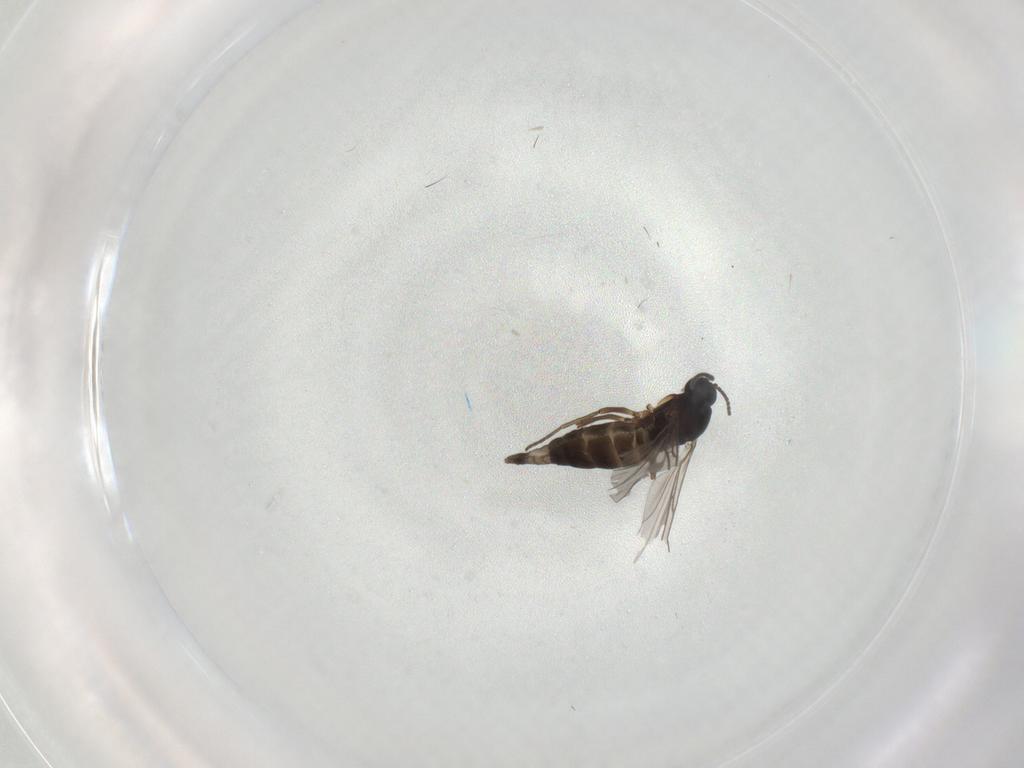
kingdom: Animalia
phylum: Arthropoda
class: Insecta
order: Diptera
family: Sciaridae
